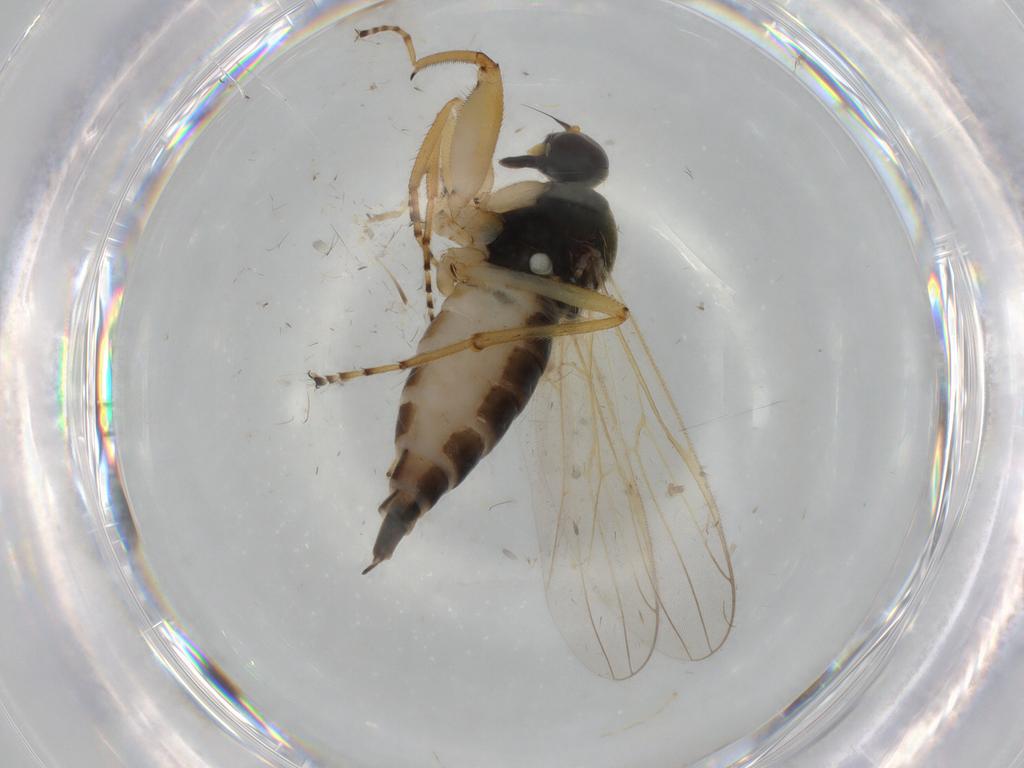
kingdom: Animalia
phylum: Arthropoda
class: Insecta
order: Diptera
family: Hybotidae
